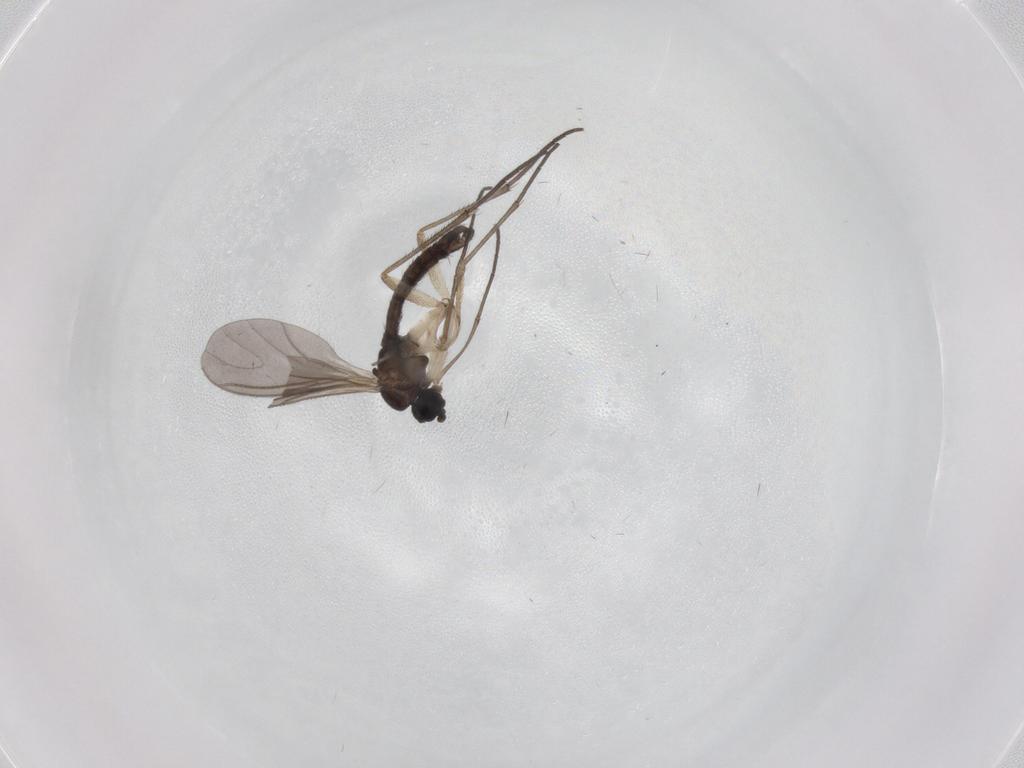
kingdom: Animalia
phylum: Arthropoda
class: Insecta
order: Diptera
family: Sciaridae
